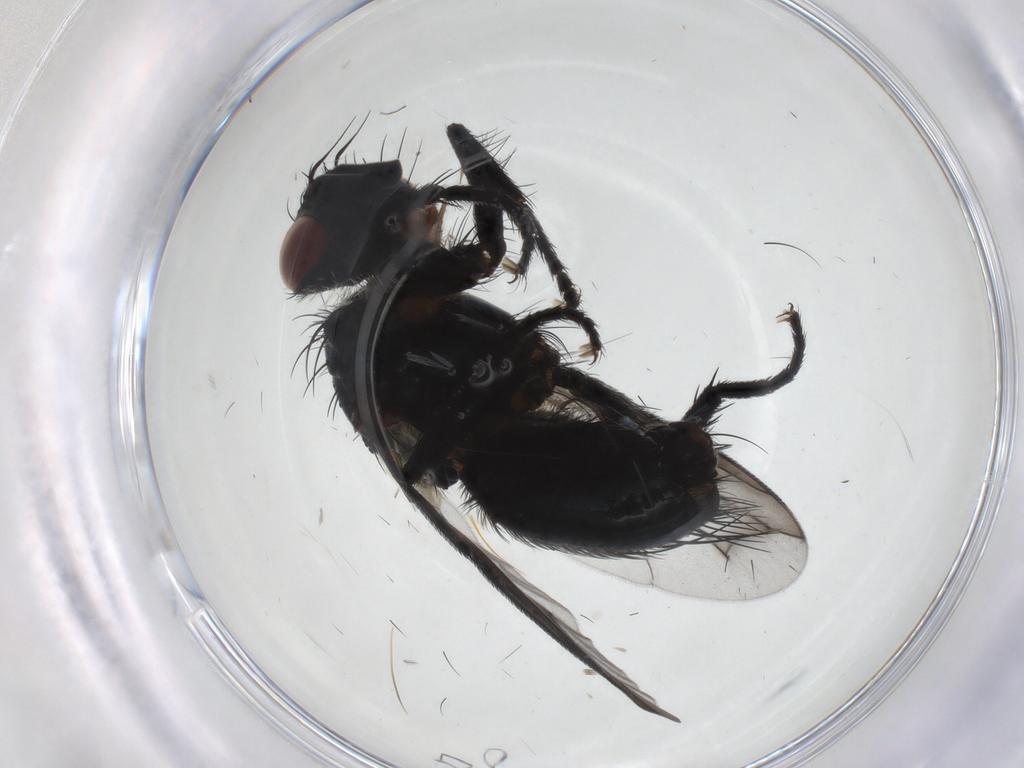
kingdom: Animalia
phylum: Arthropoda
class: Insecta
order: Diptera
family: Tachinidae
